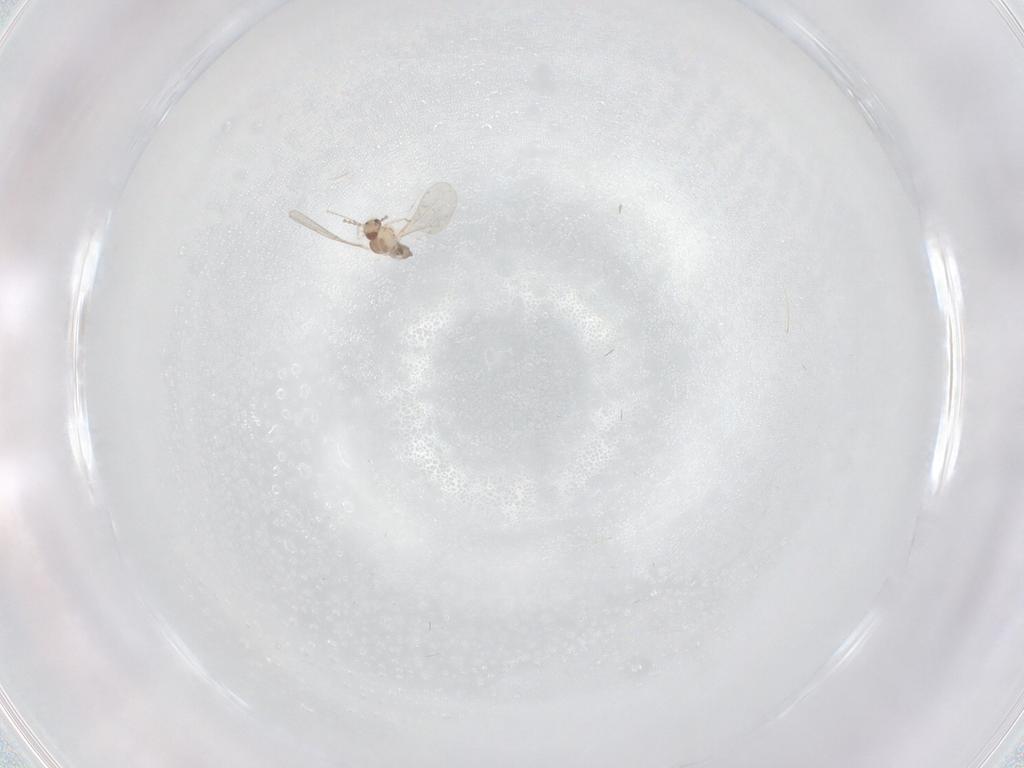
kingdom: Animalia
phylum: Arthropoda
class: Insecta
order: Diptera
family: Cecidomyiidae
